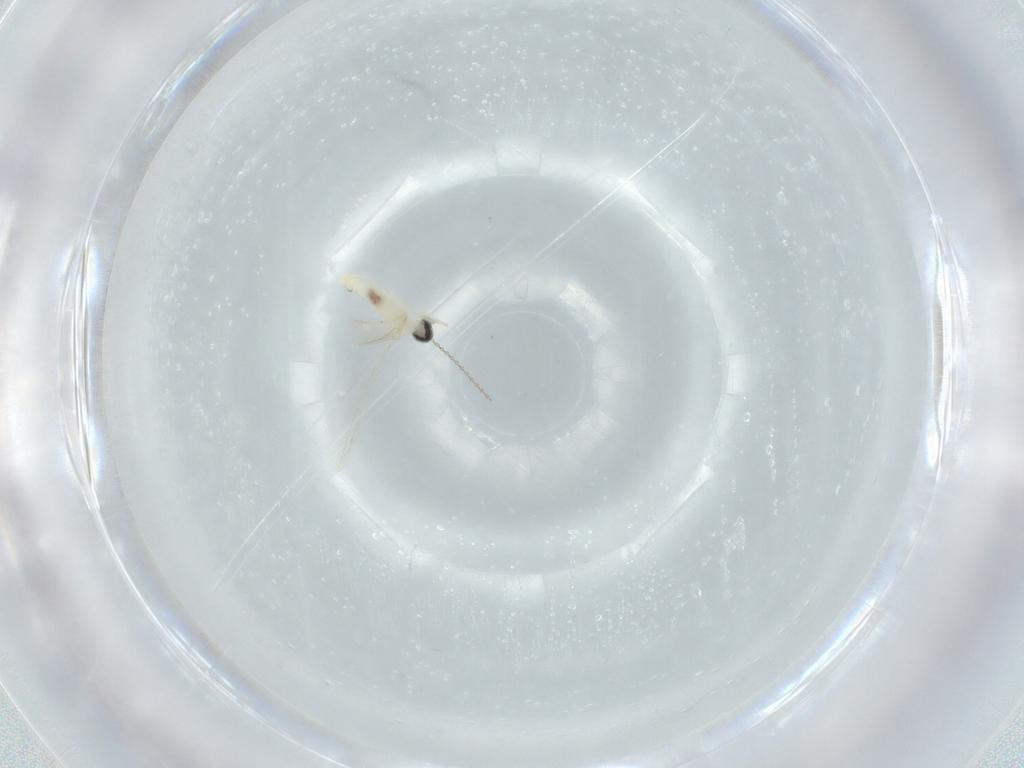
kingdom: Animalia
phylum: Arthropoda
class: Insecta
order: Diptera
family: Cecidomyiidae
